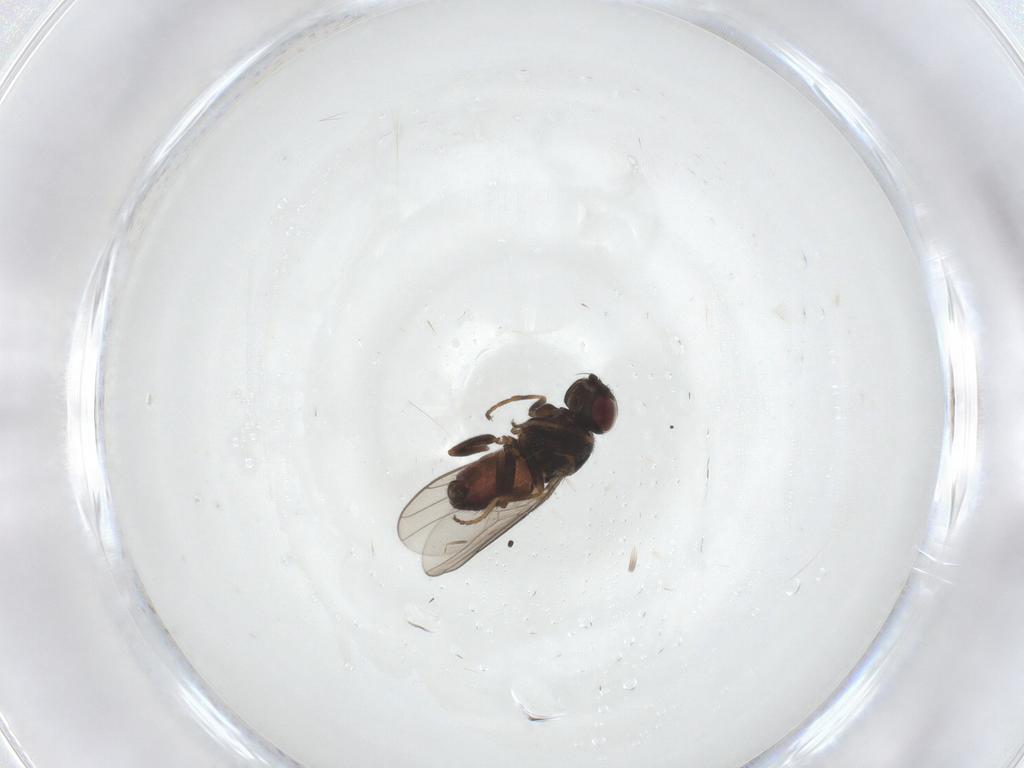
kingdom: Animalia
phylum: Arthropoda
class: Insecta
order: Diptera
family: Chloropidae
